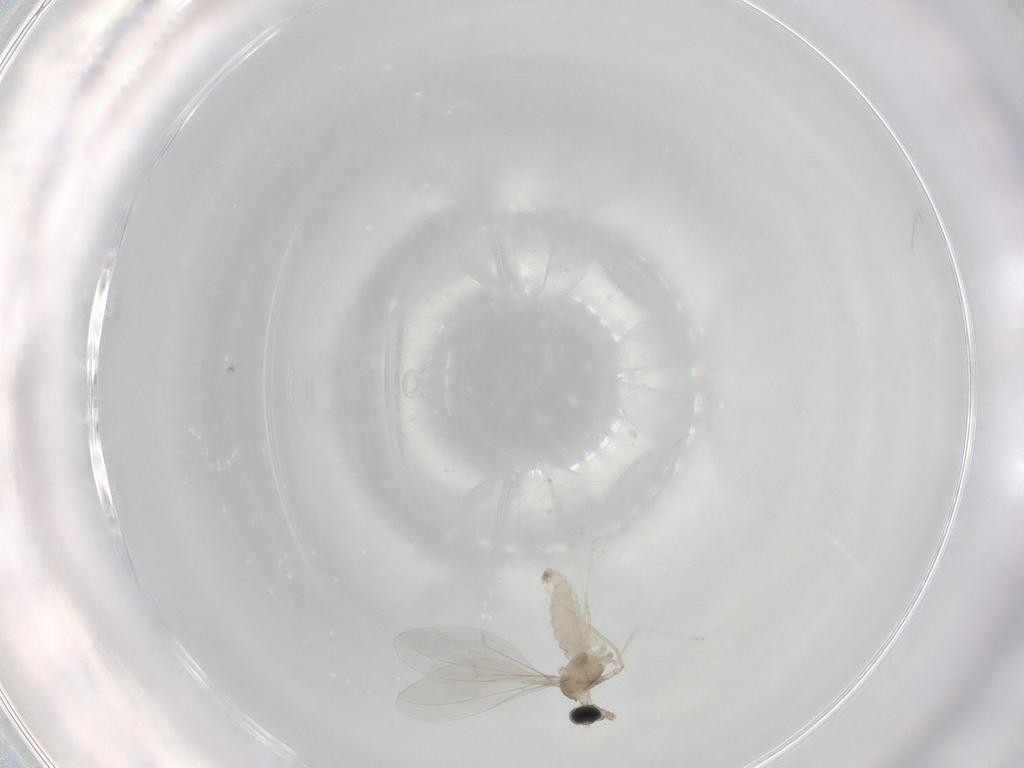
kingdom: Animalia
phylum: Arthropoda
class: Insecta
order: Diptera
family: Cecidomyiidae
